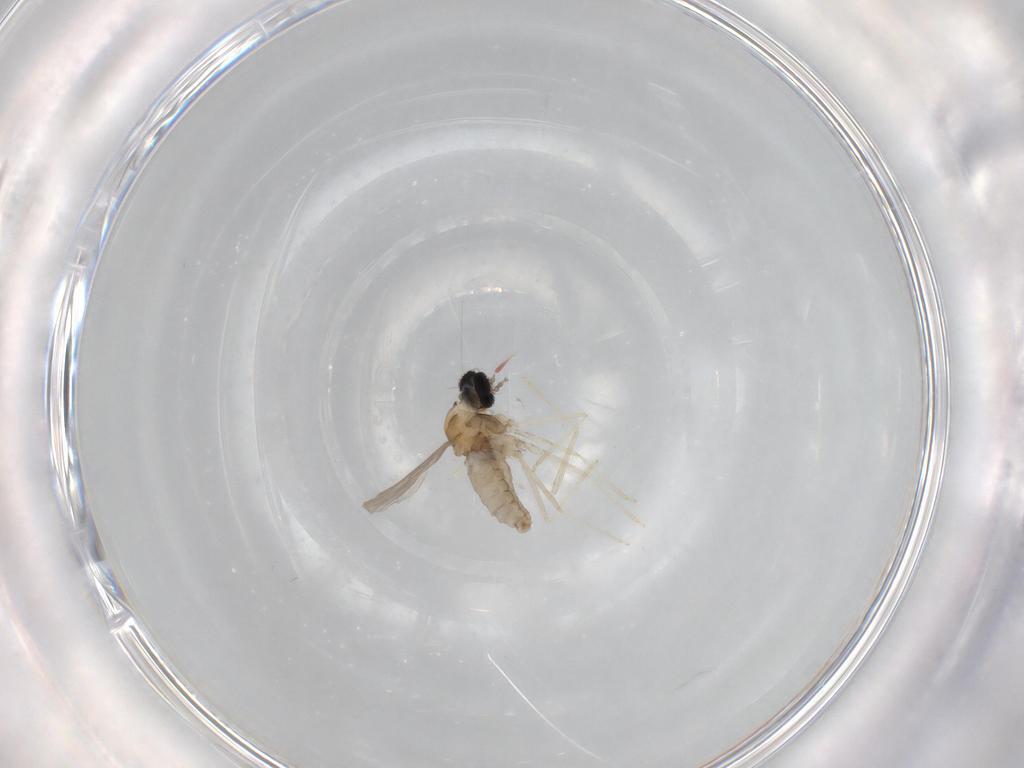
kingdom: Animalia
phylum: Arthropoda
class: Insecta
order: Diptera
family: Cecidomyiidae
